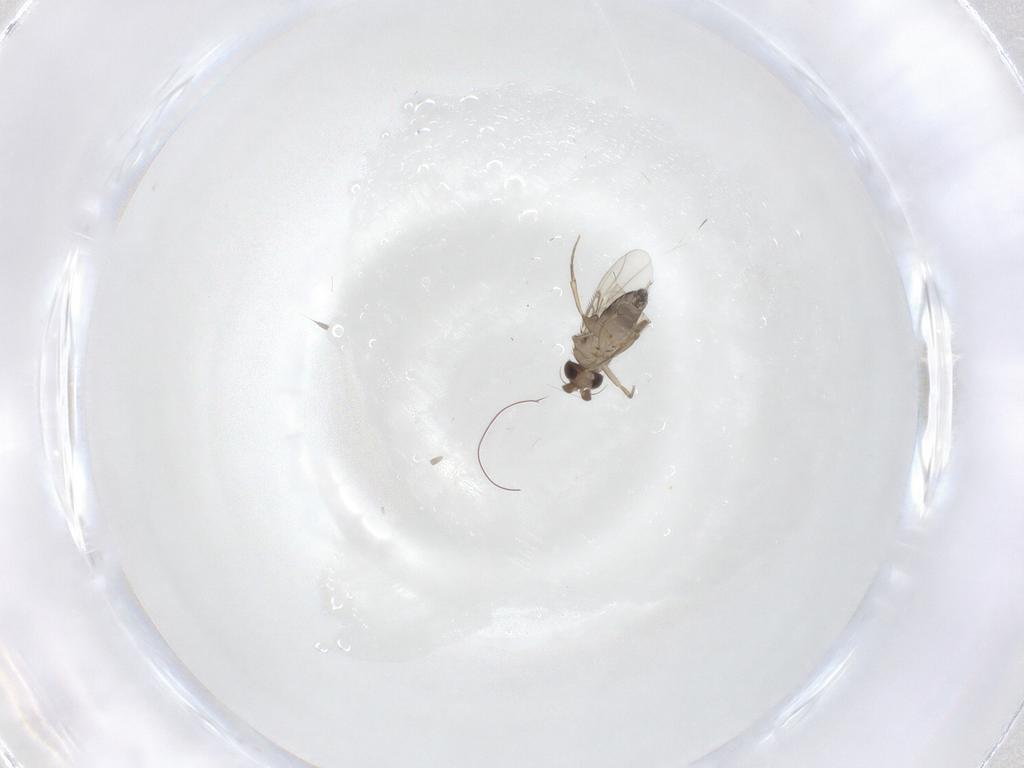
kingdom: Animalia
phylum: Arthropoda
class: Insecta
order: Diptera
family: Phoridae
